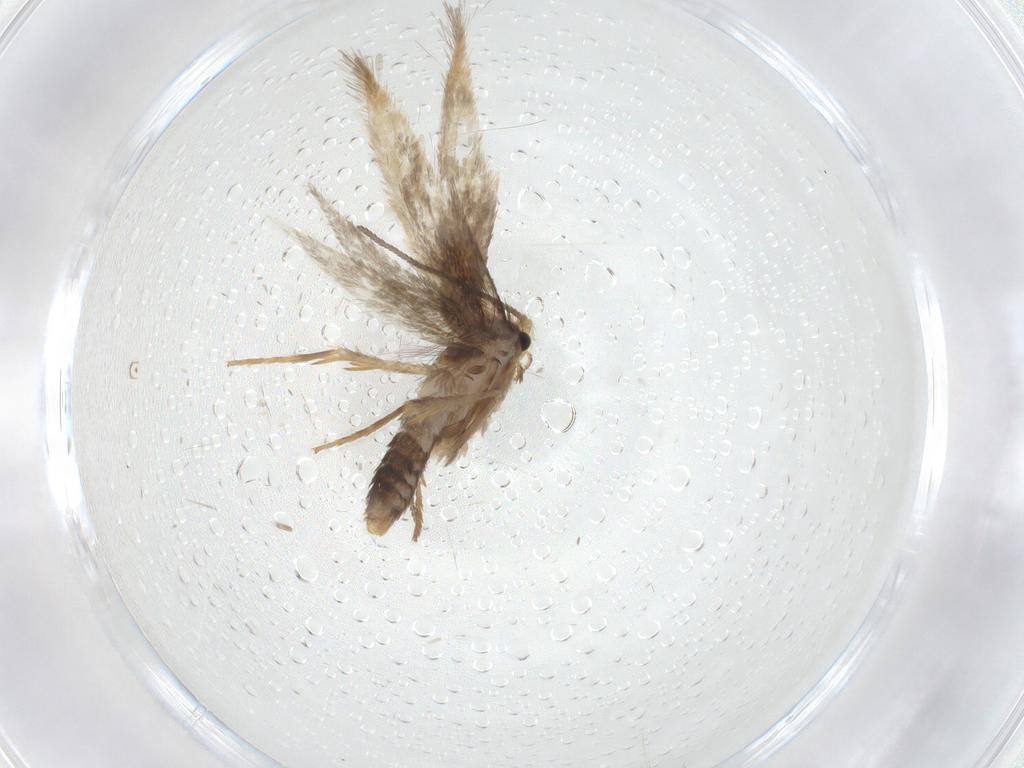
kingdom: Animalia
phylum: Arthropoda
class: Insecta
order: Lepidoptera
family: Nepticulidae
